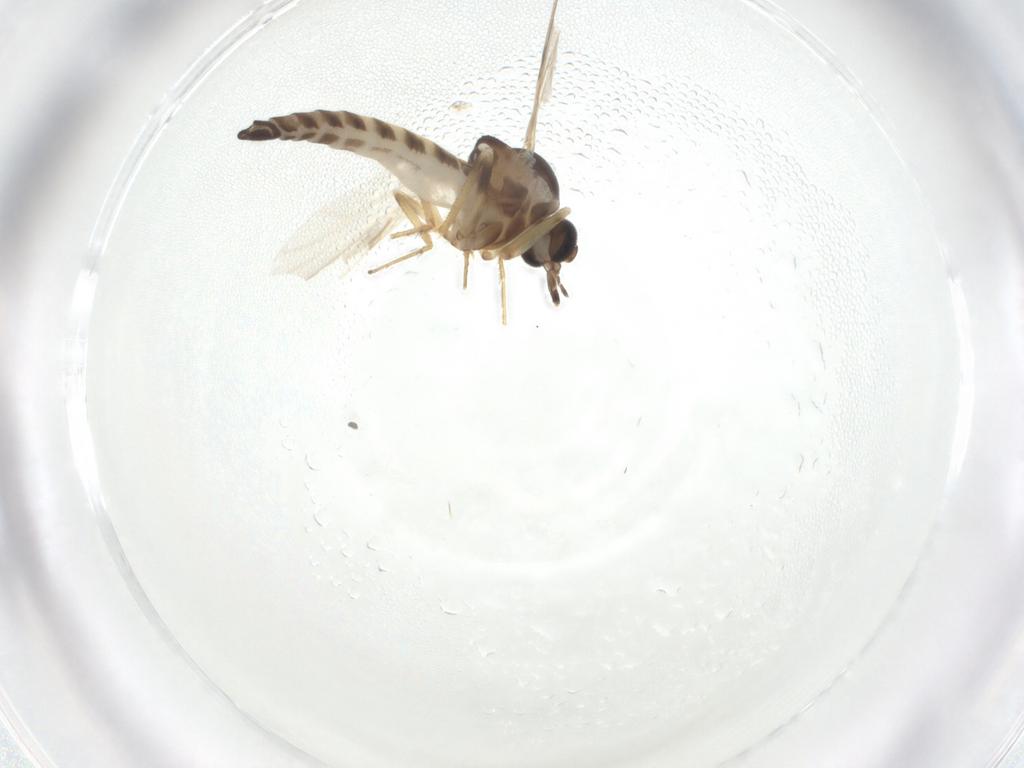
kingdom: Animalia
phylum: Arthropoda
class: Insecta
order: Diptera
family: Ceratopogonidae
